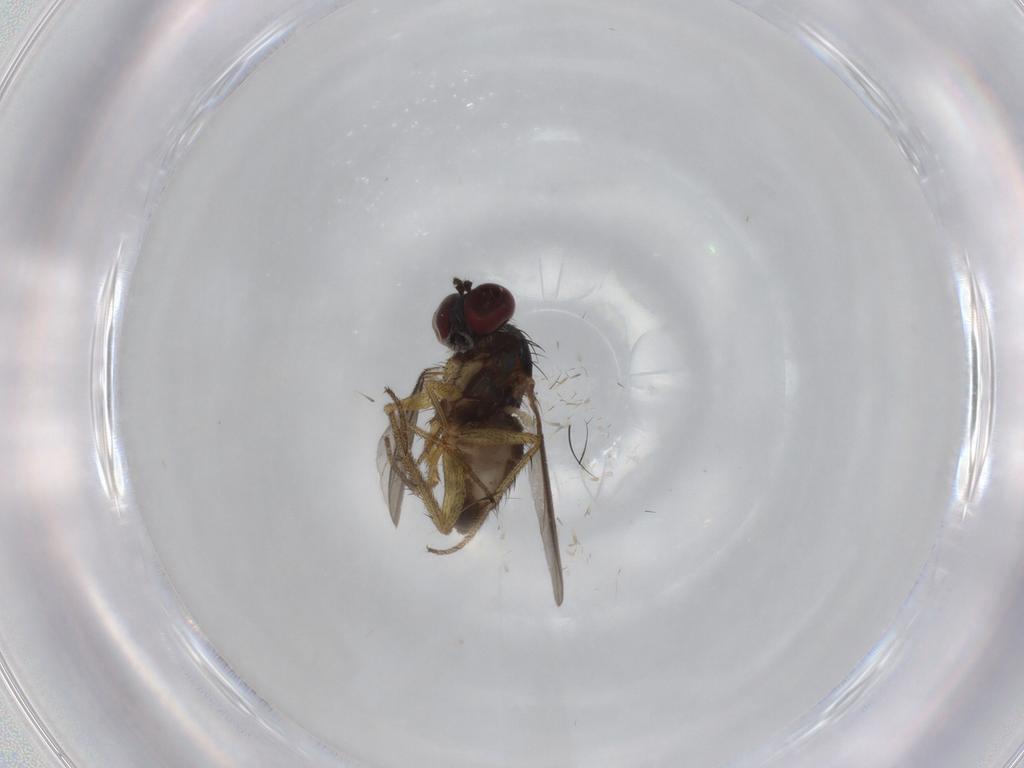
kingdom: Animalia
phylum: Arthropoda
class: Insecta
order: Diptera
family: Dolichopodidae
